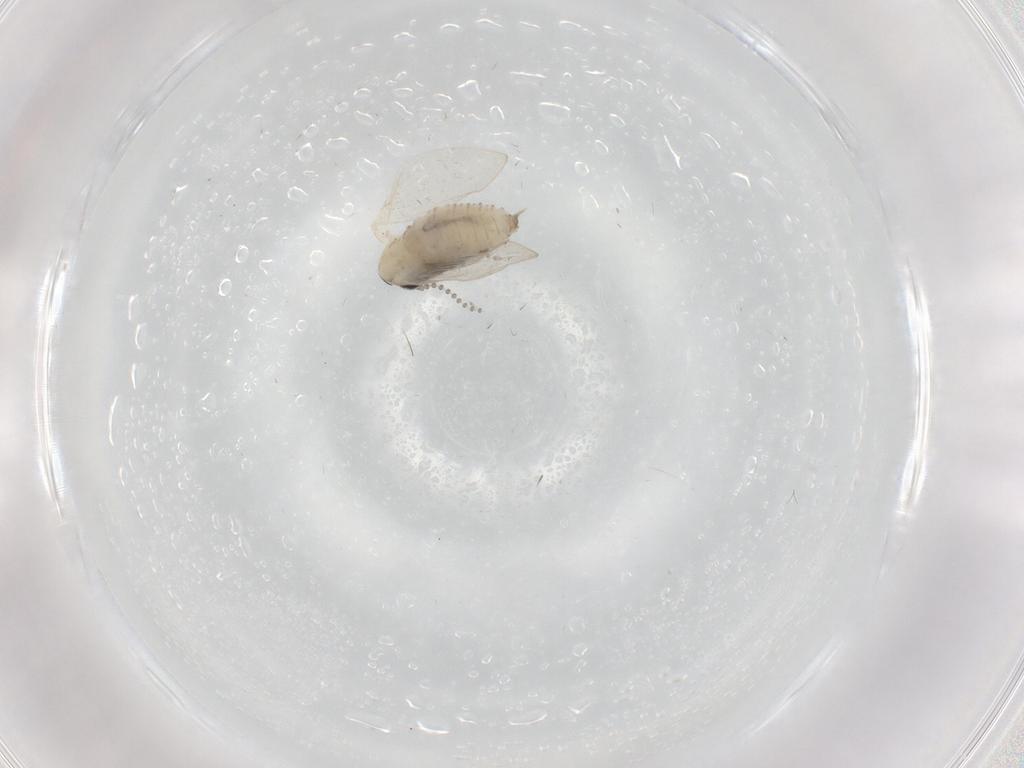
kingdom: Animalia
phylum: Arthropoda
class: Insecta
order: Diptera
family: Psychodidae
